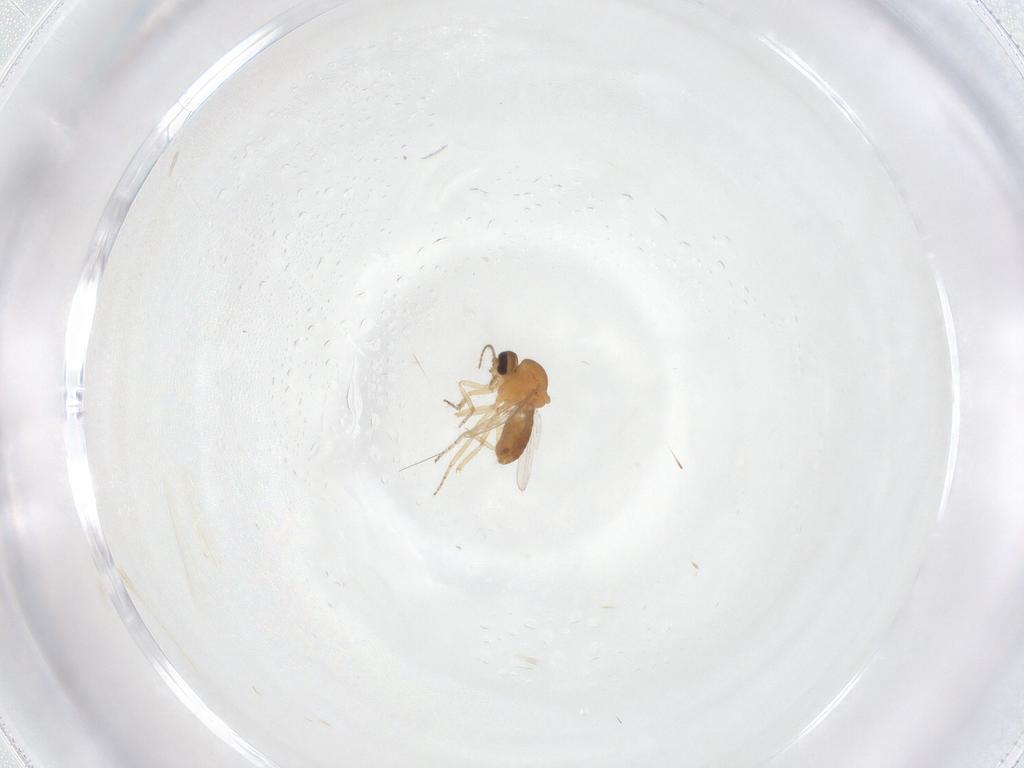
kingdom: Animalia
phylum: Arthropoda
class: Insecta
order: Diptera
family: Ceratopogonidae
